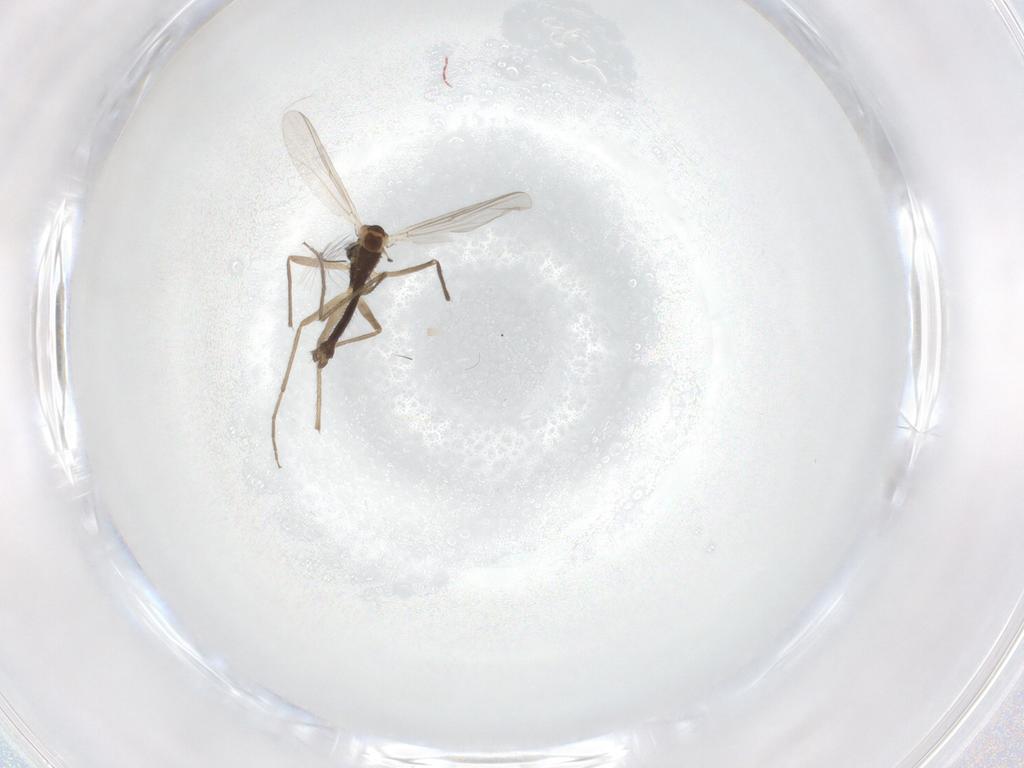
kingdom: Animalia
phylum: Arthropoda
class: Insecta
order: Diptera
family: Chironomidae
